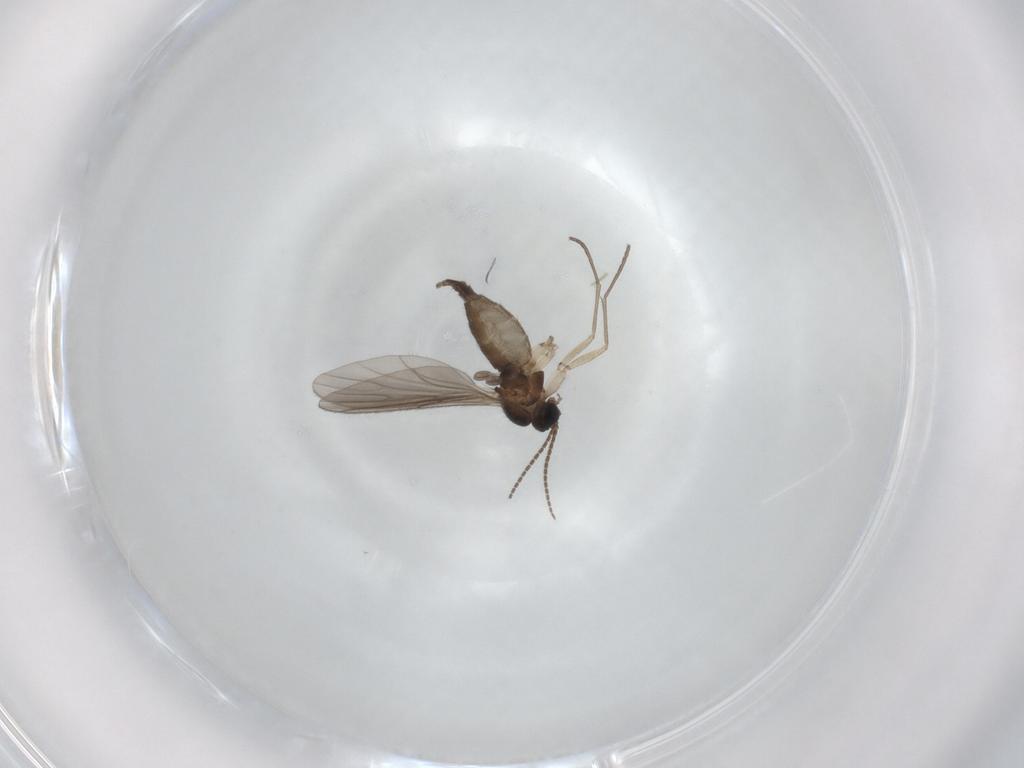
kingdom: Animalia
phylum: Arthropoda
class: Insecta
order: Diptera
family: Sciaridae
